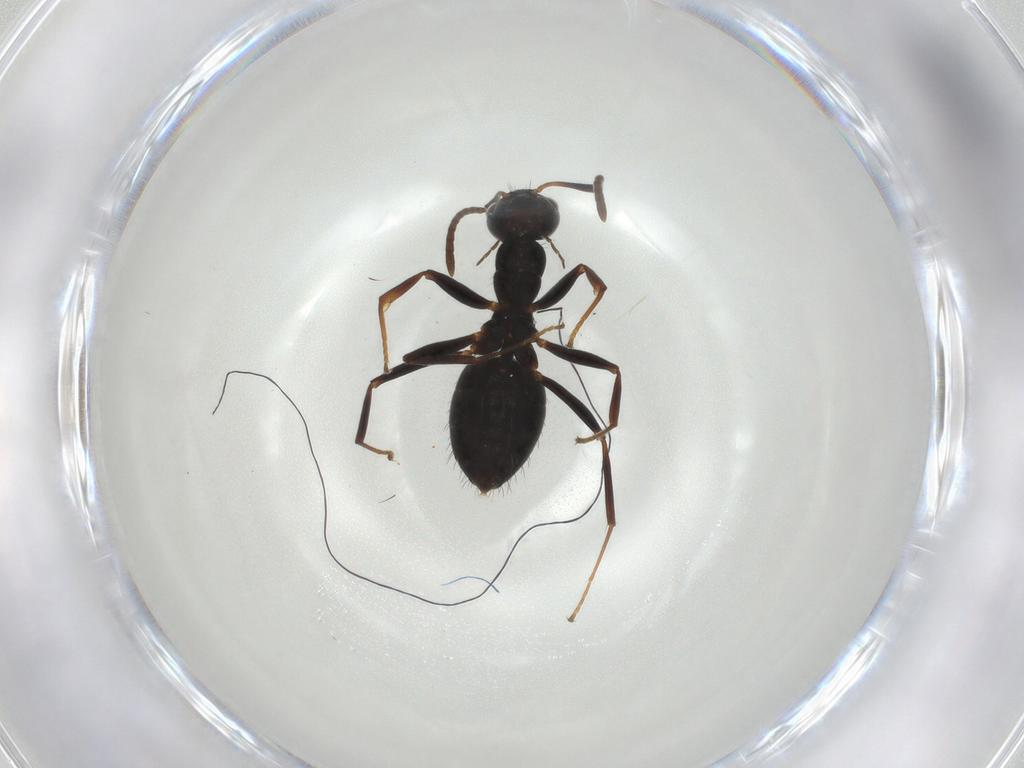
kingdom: Animalia
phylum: Arthropoda
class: Insecta
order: Hymenoptera
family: Formicidae
